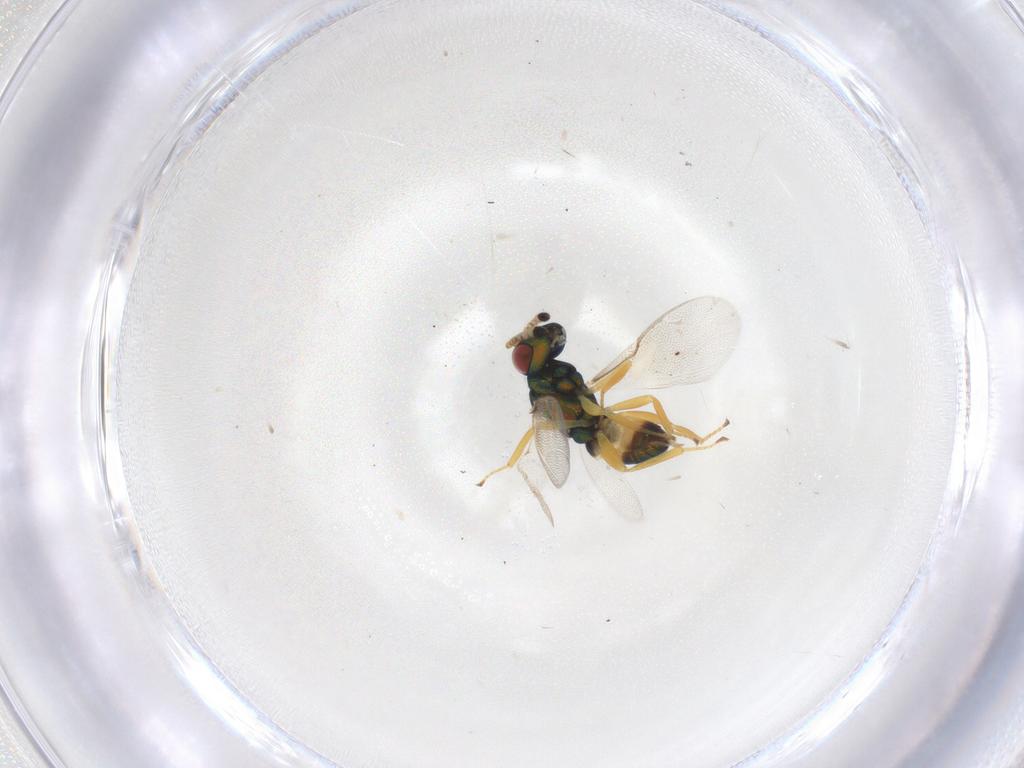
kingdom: Animalia
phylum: Arthropoda
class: Insecta
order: Hymenoptera
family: Pteromalidae
